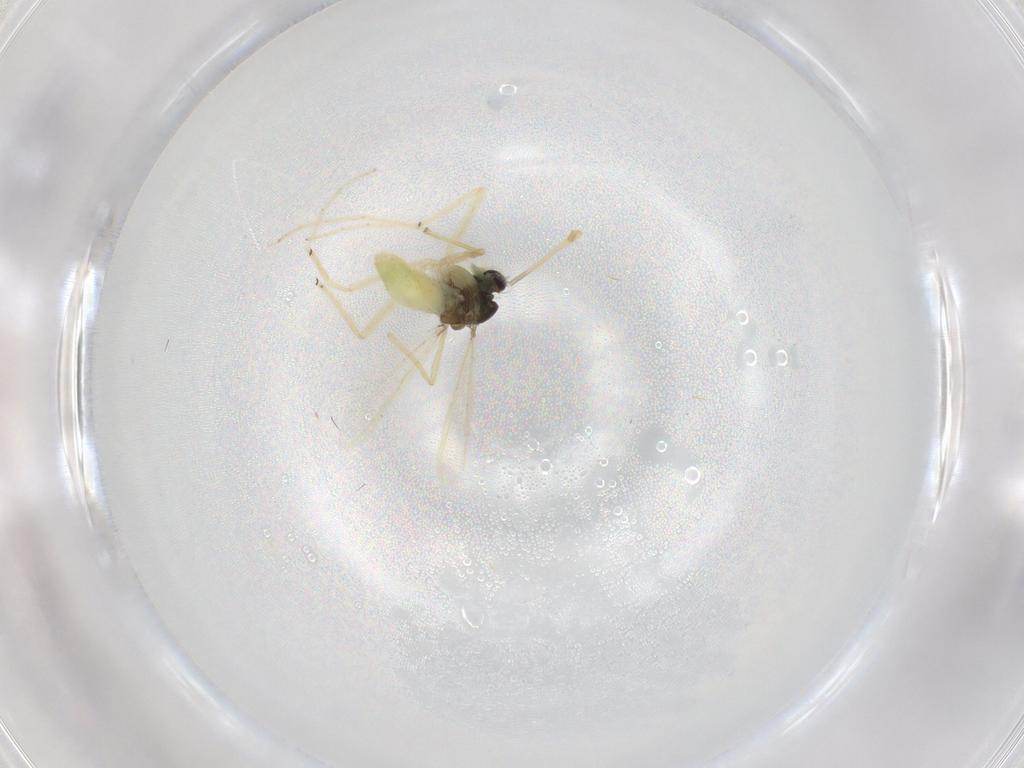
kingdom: Animalia
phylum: Arthropoda
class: Insecta
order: Diptera
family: Chironomidae
